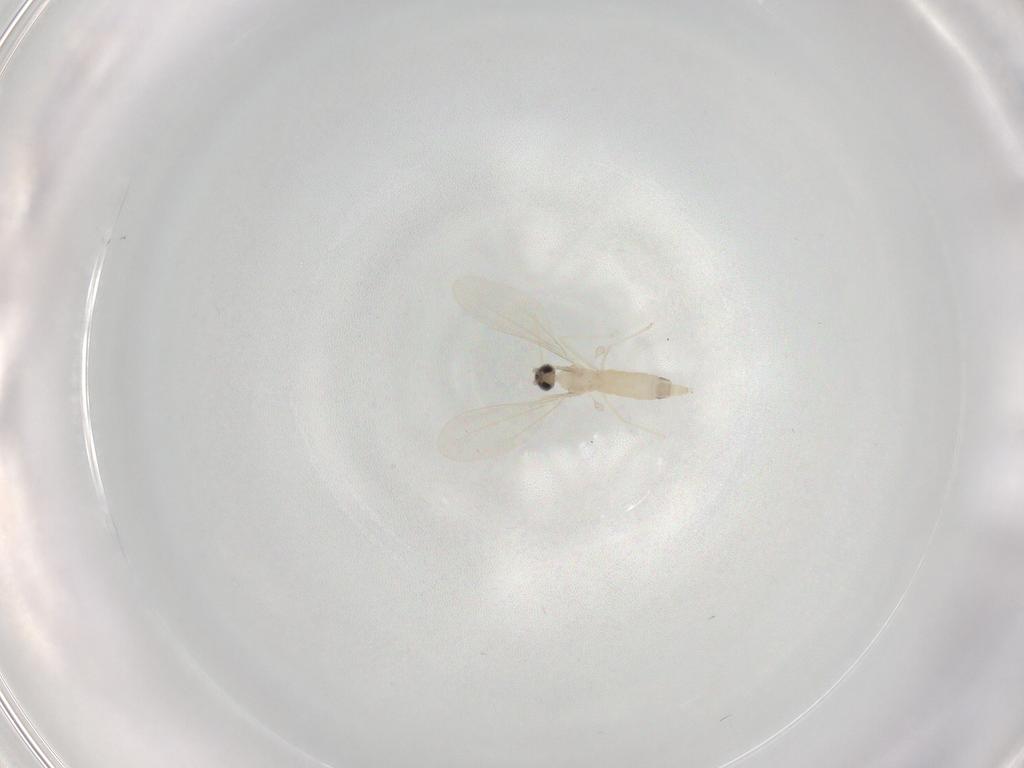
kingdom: Animalia
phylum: Arthropoda
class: Insecta
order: Diptera
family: Cecidomyiidae
